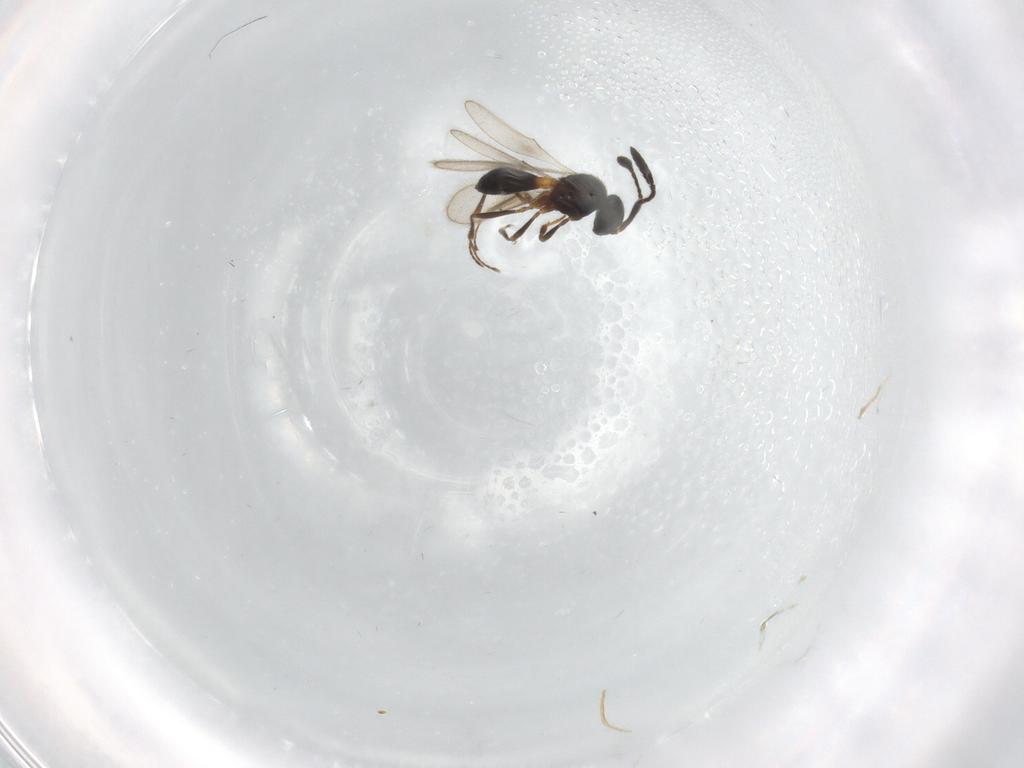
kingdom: Animalia
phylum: Arthropoda
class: Insecta
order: Hymenoptera
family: Scelionidae
